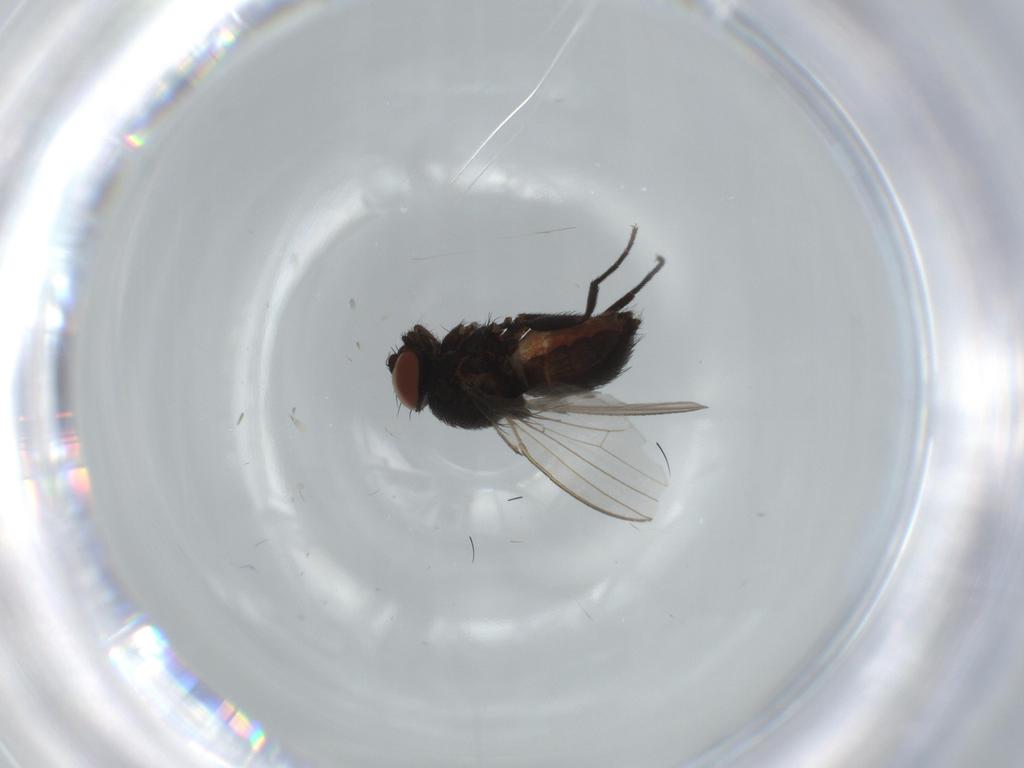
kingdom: Animalia
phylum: Arthropoda
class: Insecta
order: Diptera
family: Milichiidae
